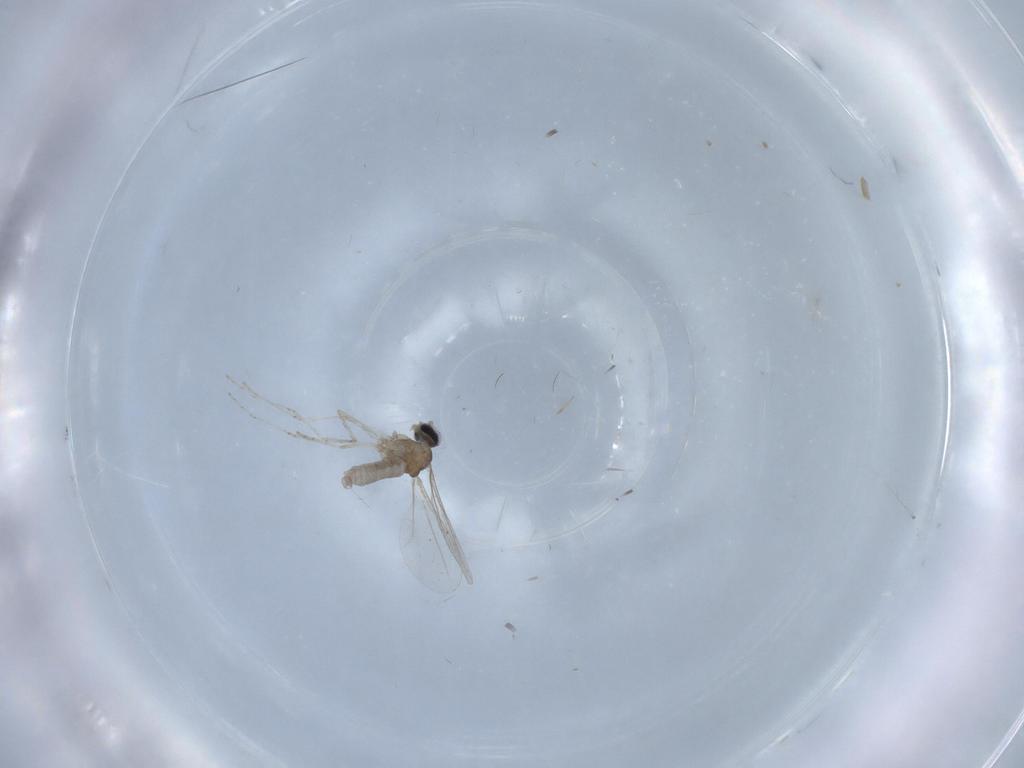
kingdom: Animalia
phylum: Arthropoda
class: Insecta
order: Diptera
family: Cecidomyiidae
